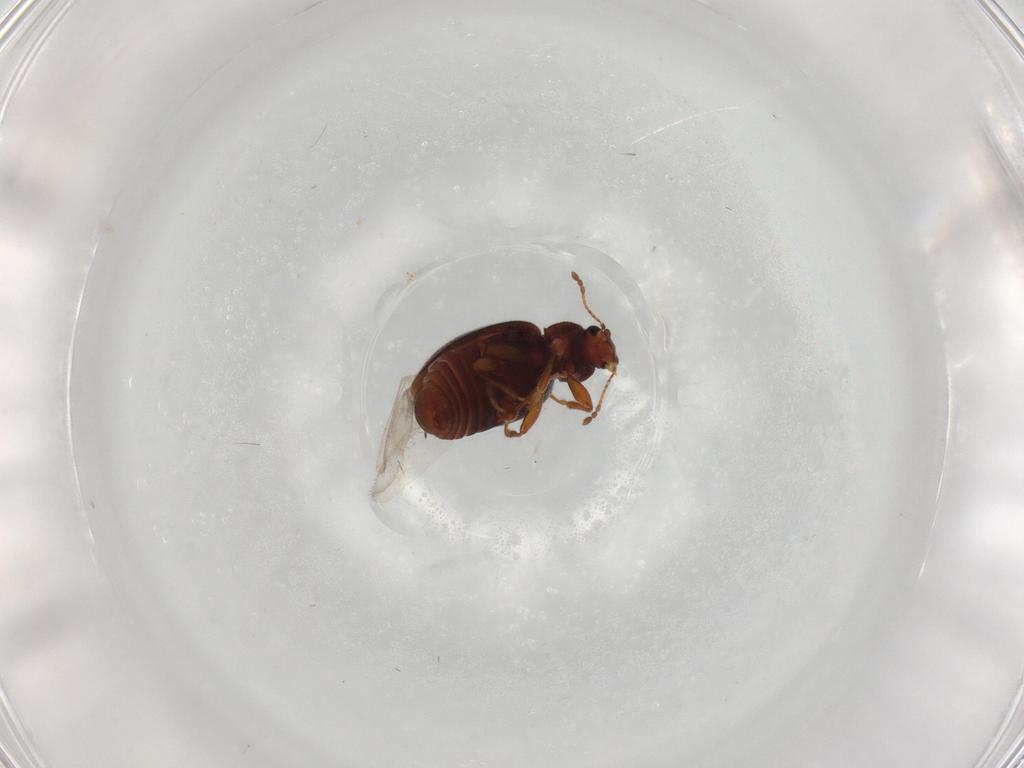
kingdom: Animalia
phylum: Arthropoda
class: Insecta
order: Coleoptera
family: Latridiidae
